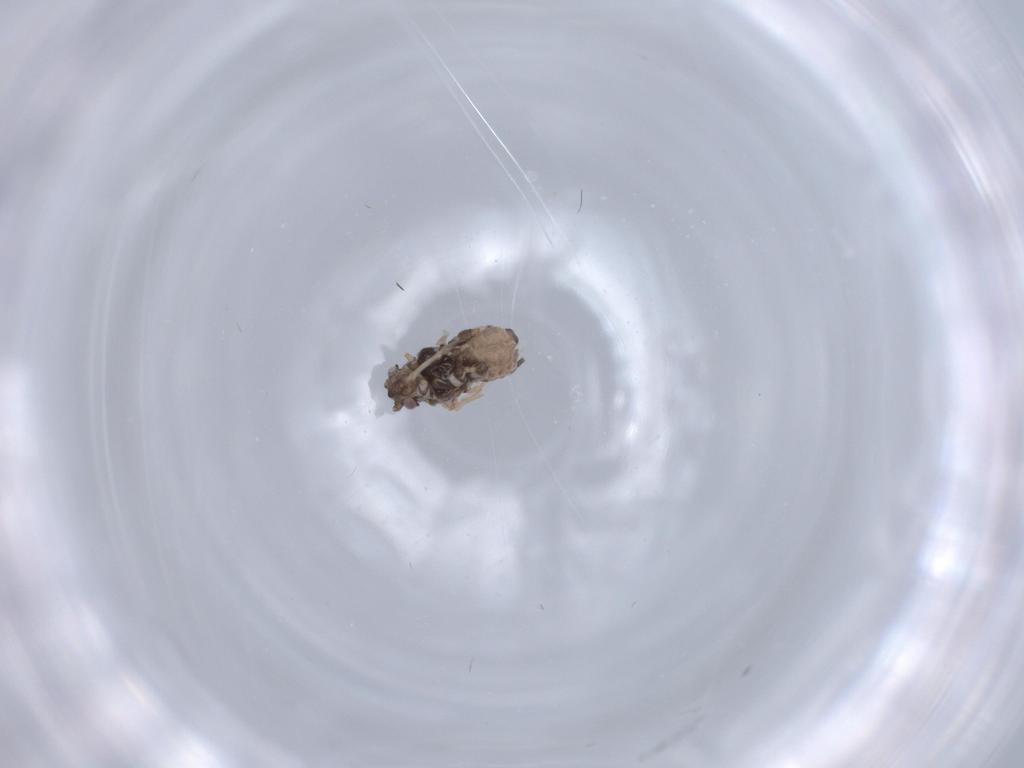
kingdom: Animalia
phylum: Arthropoda
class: Insecta
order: Hemiptera
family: Aphididae
